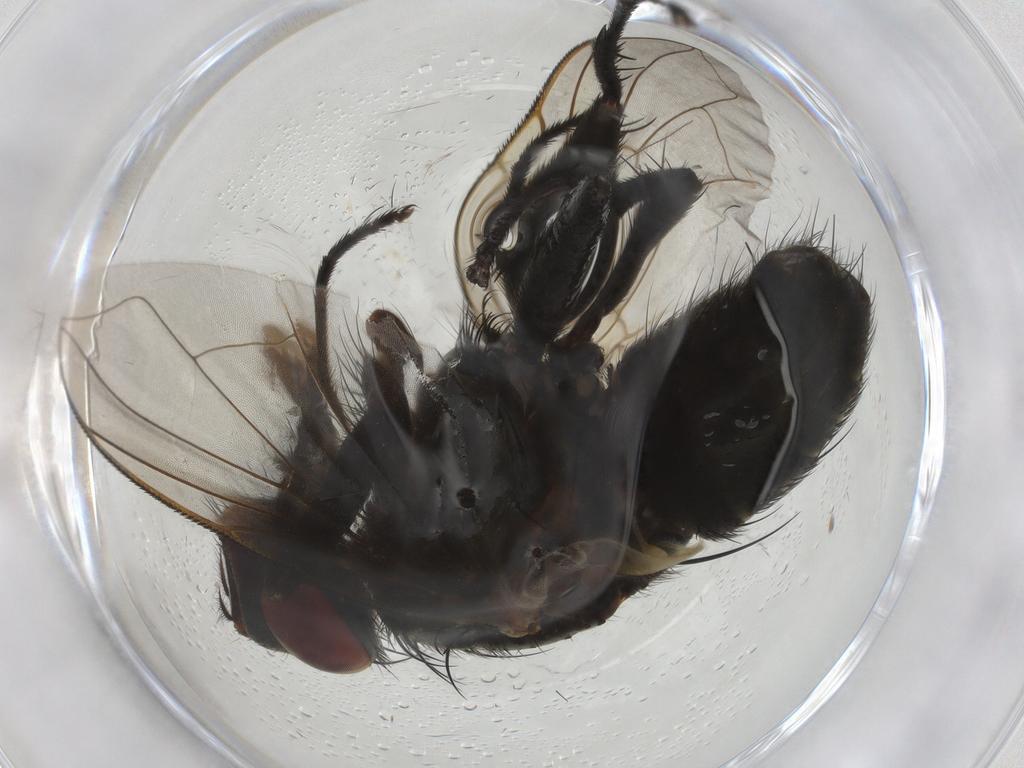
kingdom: Animalia
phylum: Arthropoda
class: Insecta
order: Diptera
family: Calliphoridae
